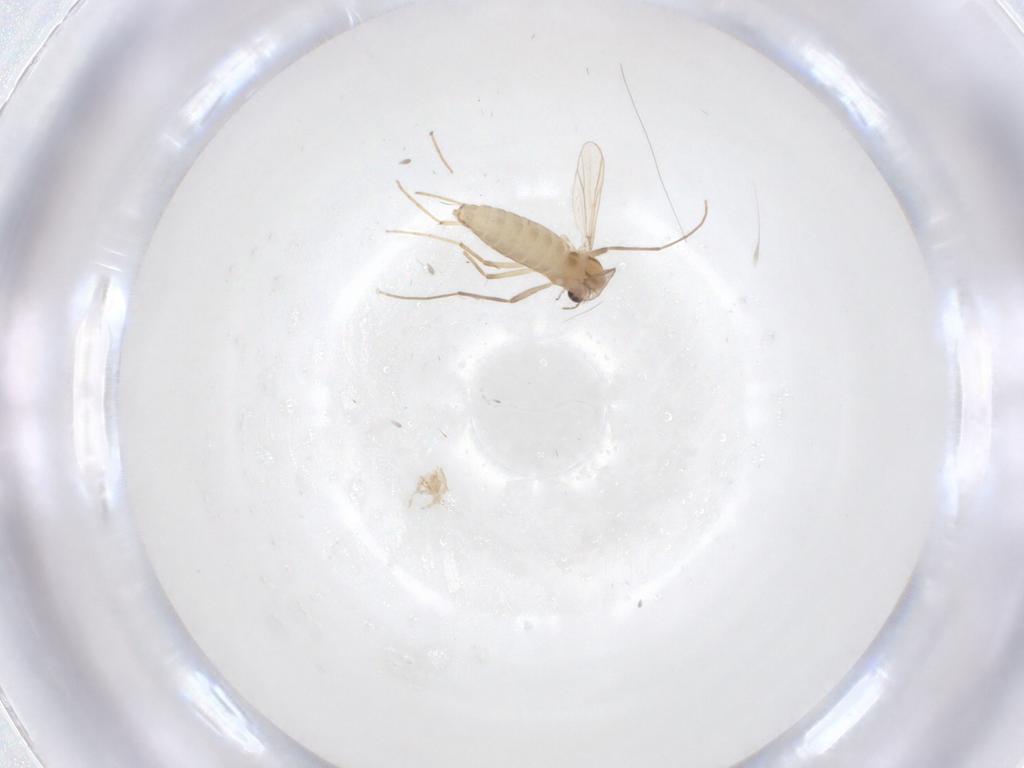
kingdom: Animalia
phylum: Arthropoda
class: Insecta
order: Diptera
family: Chironomidae
